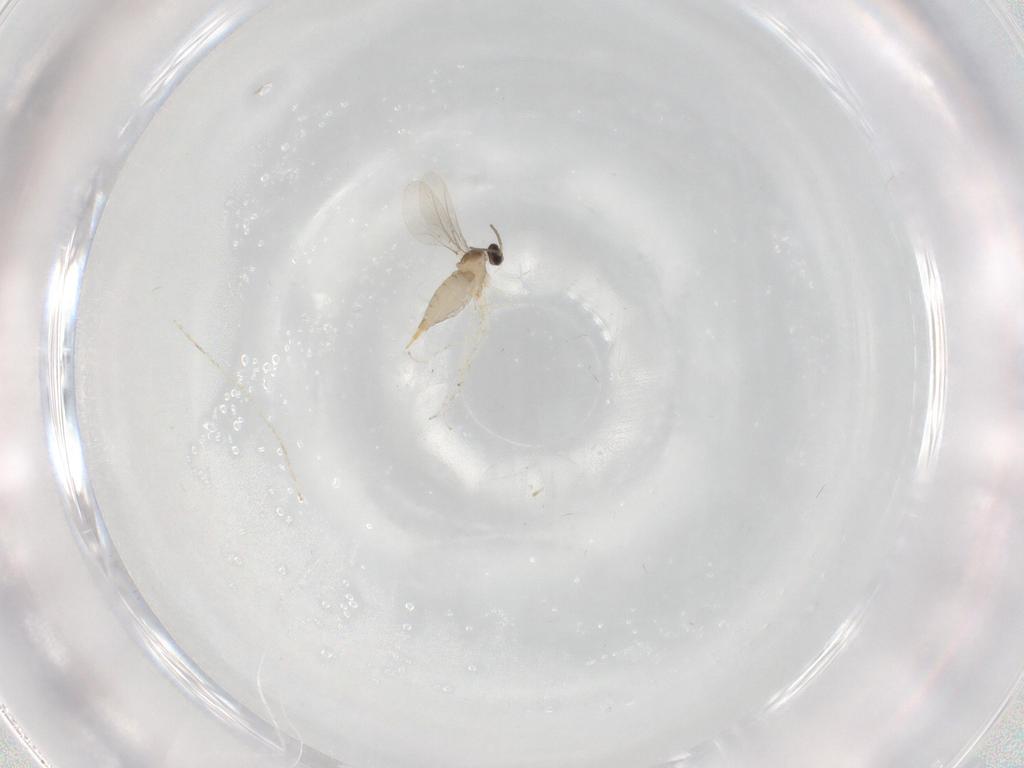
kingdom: Animalia
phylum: Arthropoda
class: Insecta
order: Diptera
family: Cecidomyiidae
